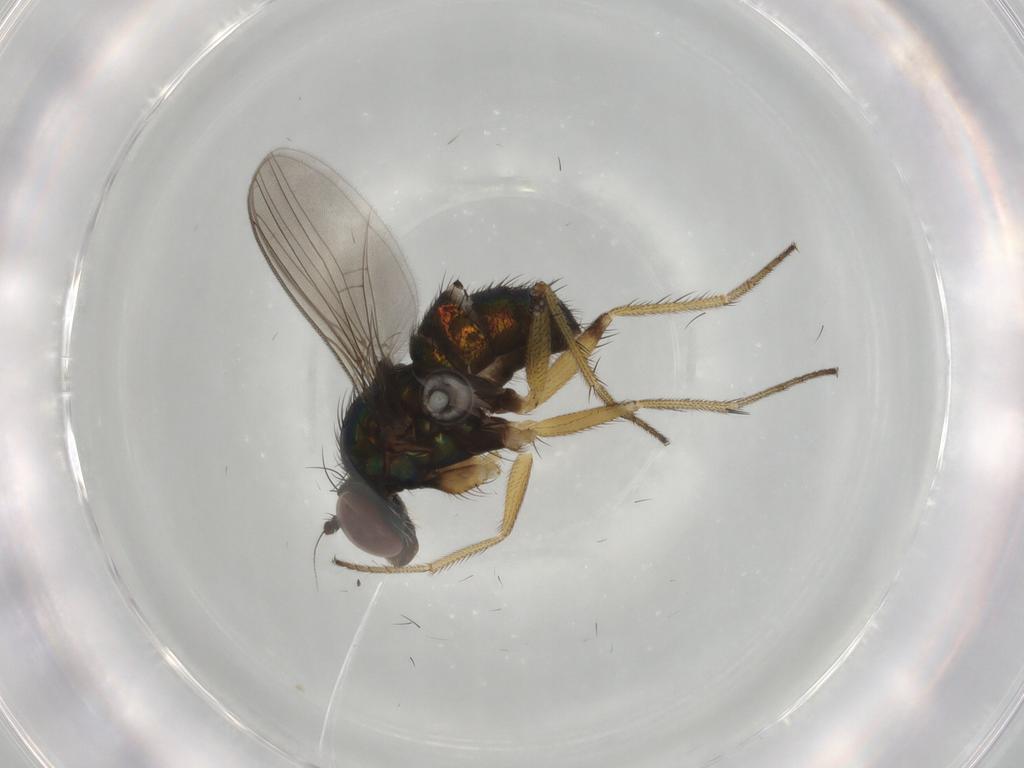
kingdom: Animalia
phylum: Arthropoda
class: Insecta
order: Diptera
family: Dolichopodidae
